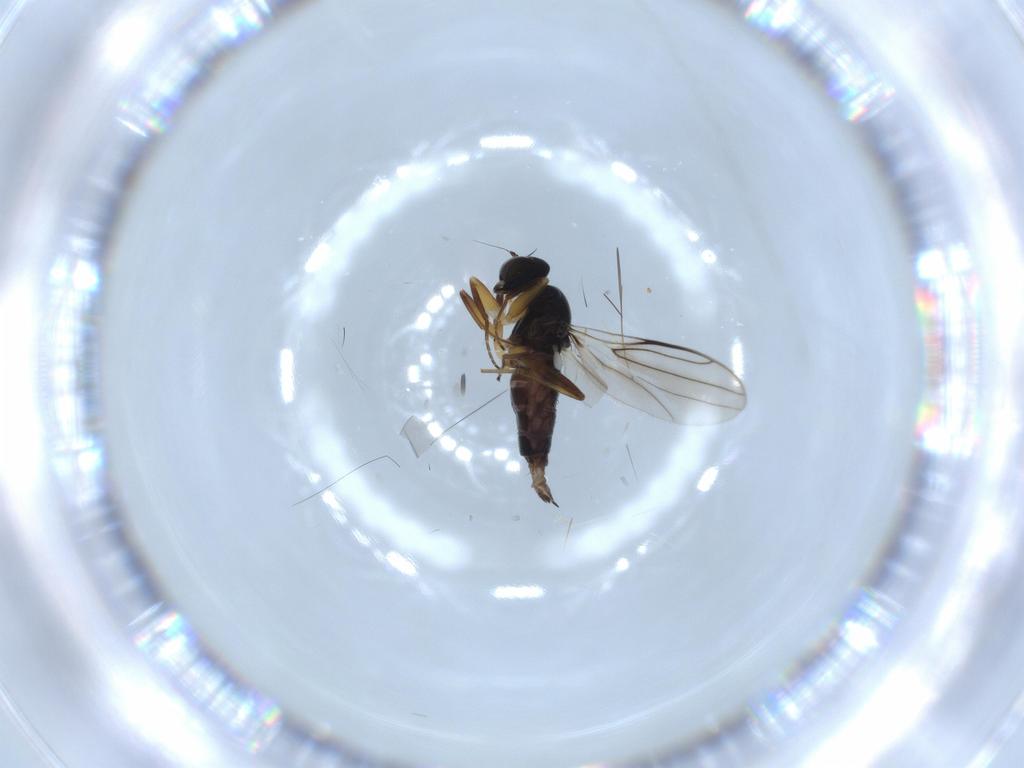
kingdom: Animalia
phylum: Arthropoda
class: Insecta
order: Diptera
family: Hybotidae
